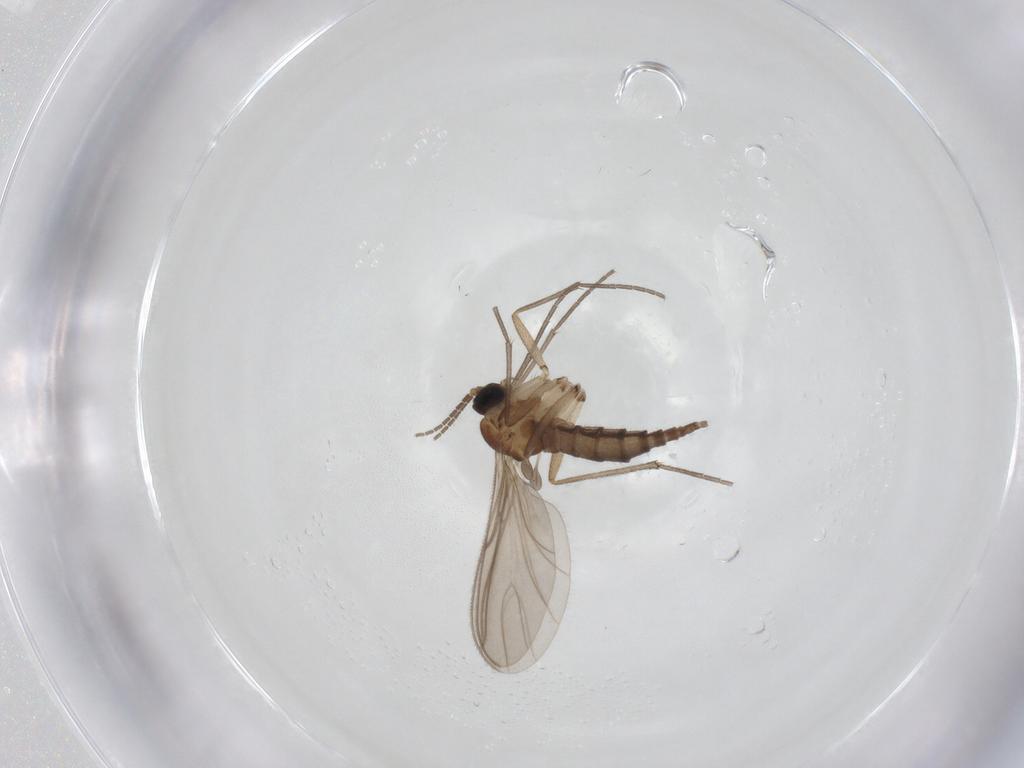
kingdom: Animalia
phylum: Arthropoda
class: Insecta
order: Diptera
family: Sciaridae
